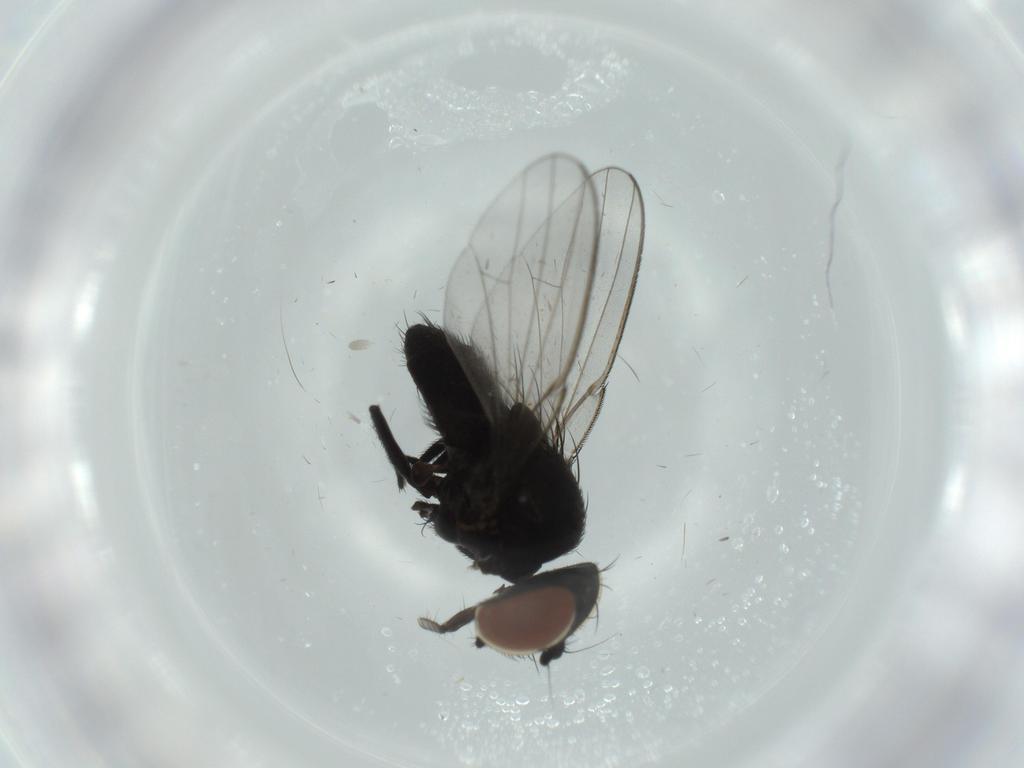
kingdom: Animalia
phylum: Arthropoda
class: Insecta
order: Diptera
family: Milichiidae
